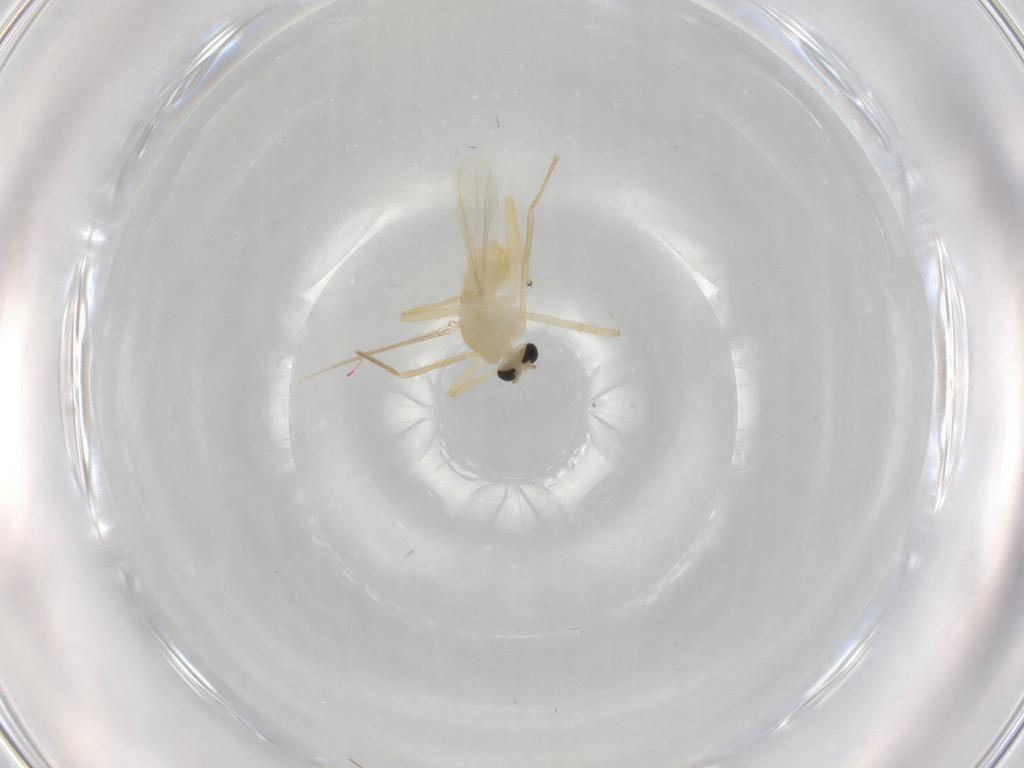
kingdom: Animalia
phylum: Arthropoda
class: Insecta
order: Diptera
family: Chironomidae
